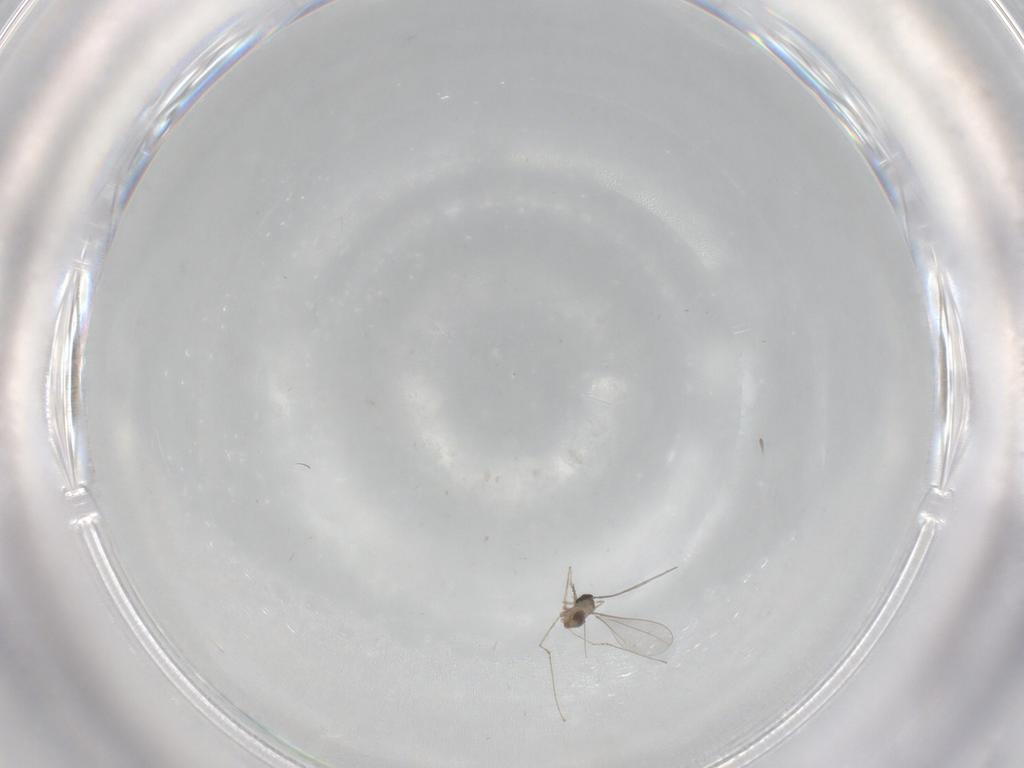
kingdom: Animalia
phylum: Arthropoda
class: Insecta
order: Diptera
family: Cecidomyiidae
